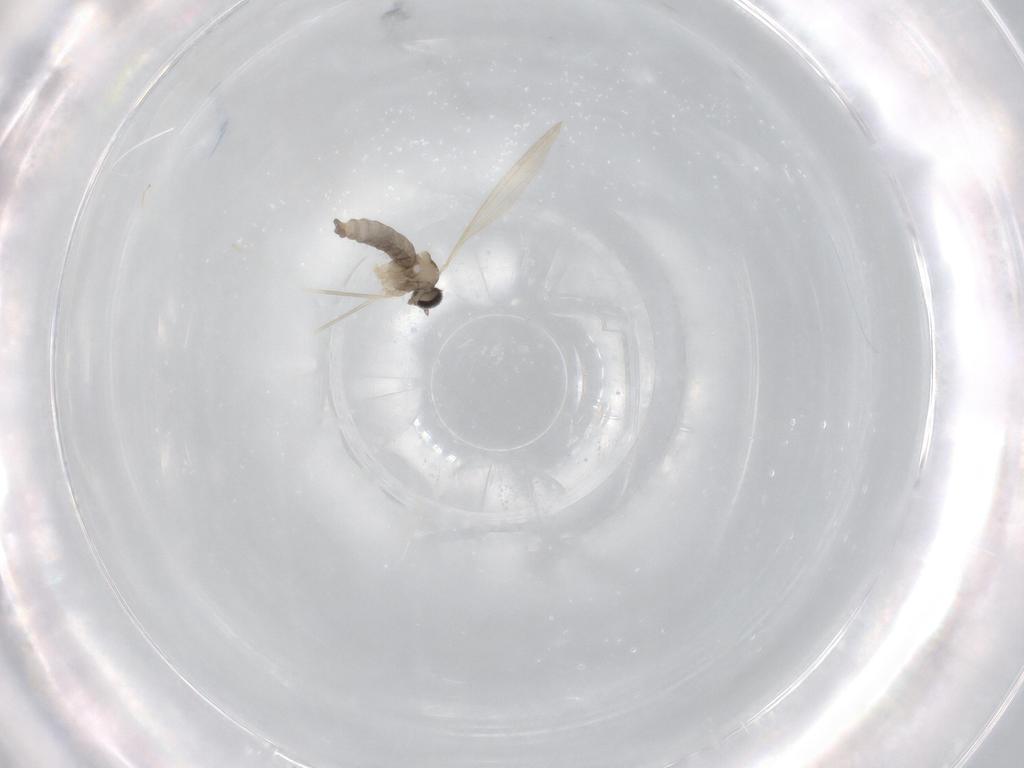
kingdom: Animalia
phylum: Arthropoda
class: Insecta
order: Diptera
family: Cecidomyiidae
